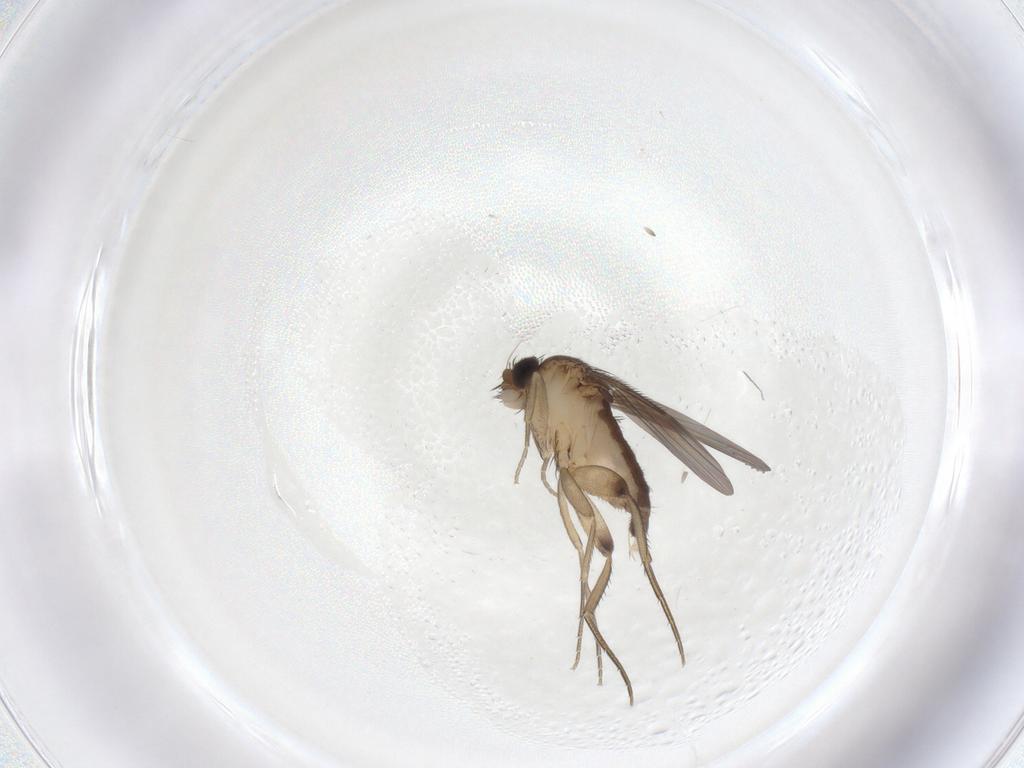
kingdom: Animalia
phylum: Arthropoda
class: Insecta
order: Diptera
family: Phoridae
